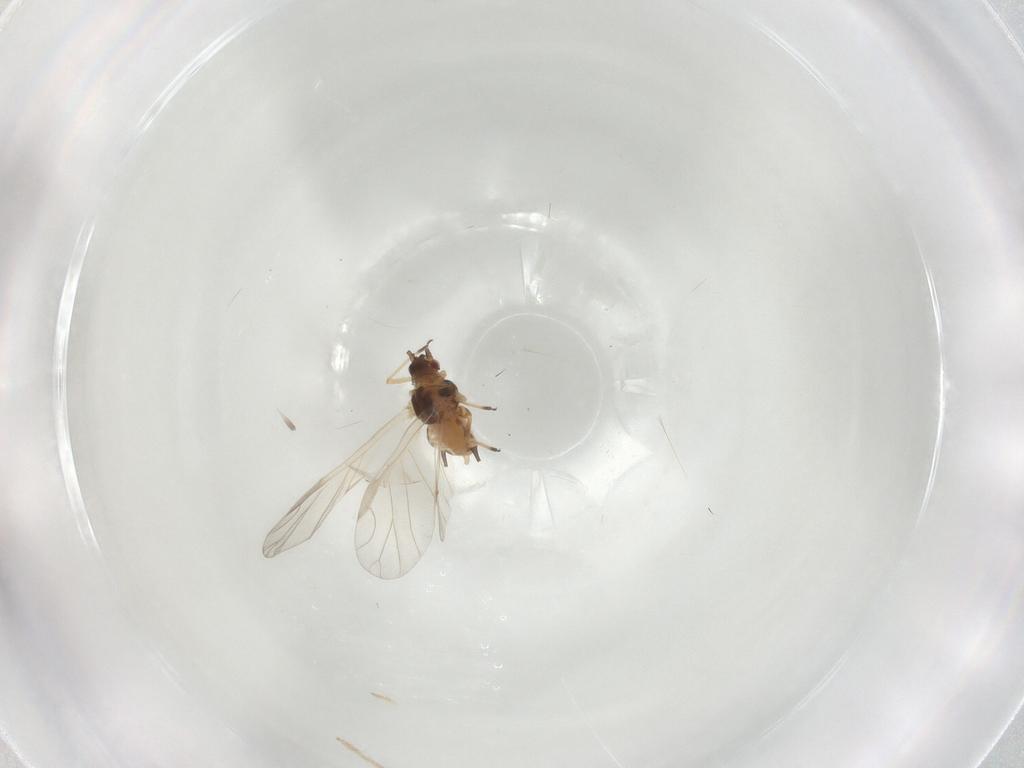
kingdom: Animalia
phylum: Arthropoda
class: Insecta
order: Hemiptera
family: Aphididae
